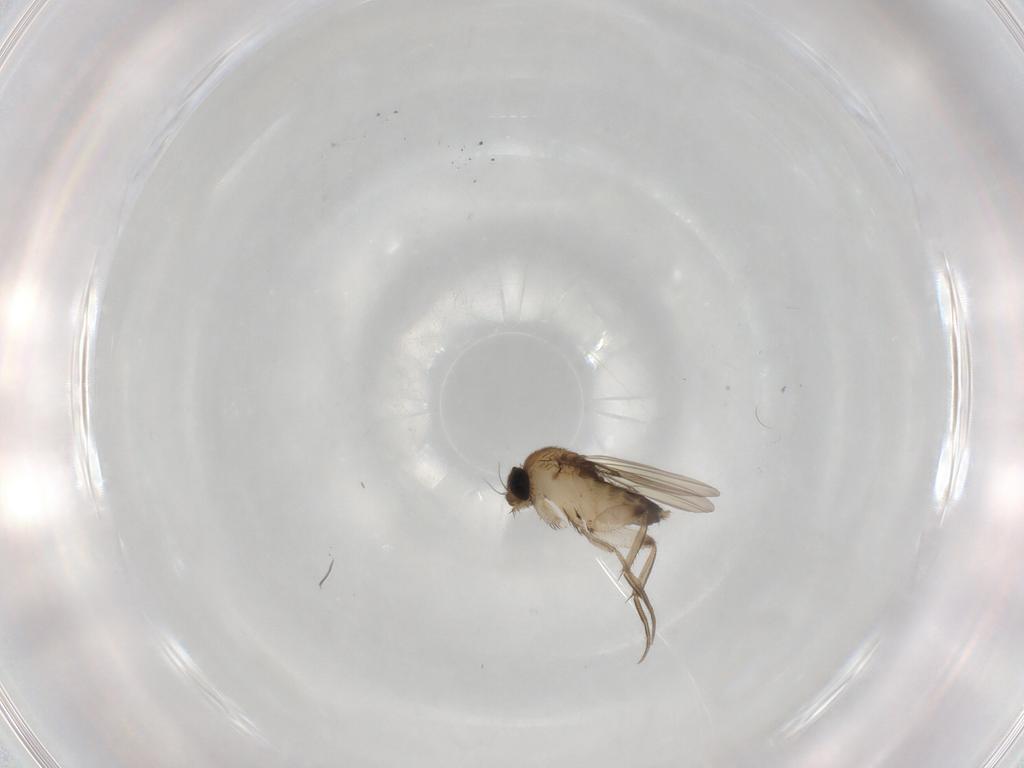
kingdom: Animalia
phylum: Arthropoda
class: Insecta
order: Diptera
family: Phoridae
